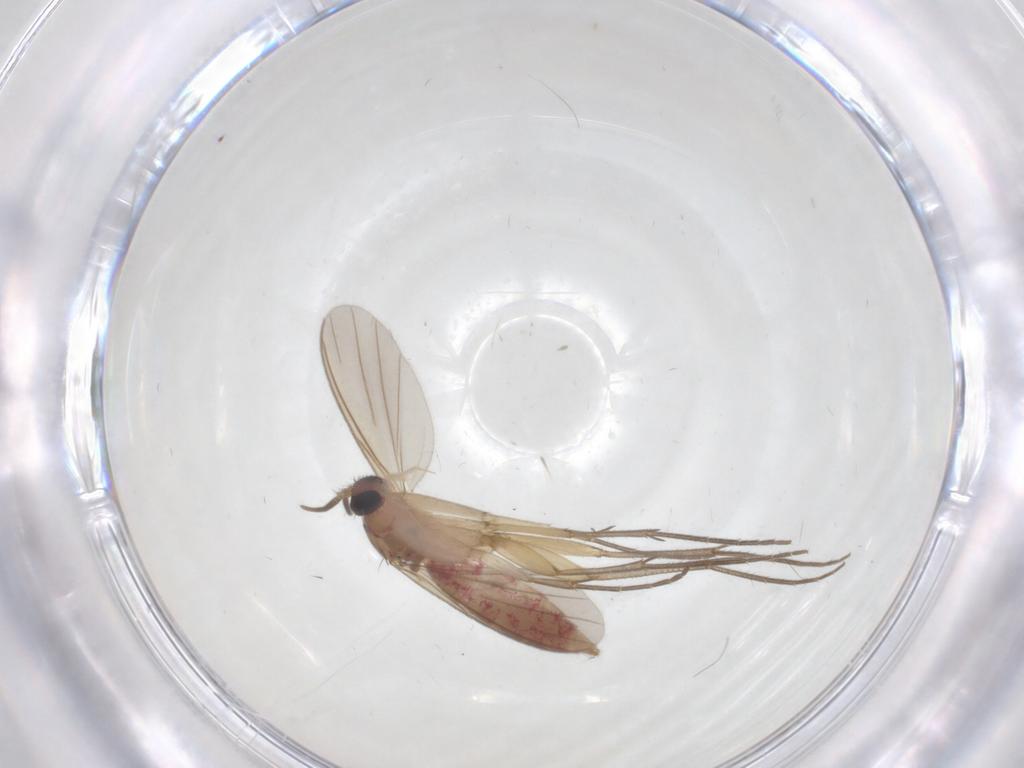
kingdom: Animalia
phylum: Arthropoda
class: Insecta
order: Diptera
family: Mycetophilidae
